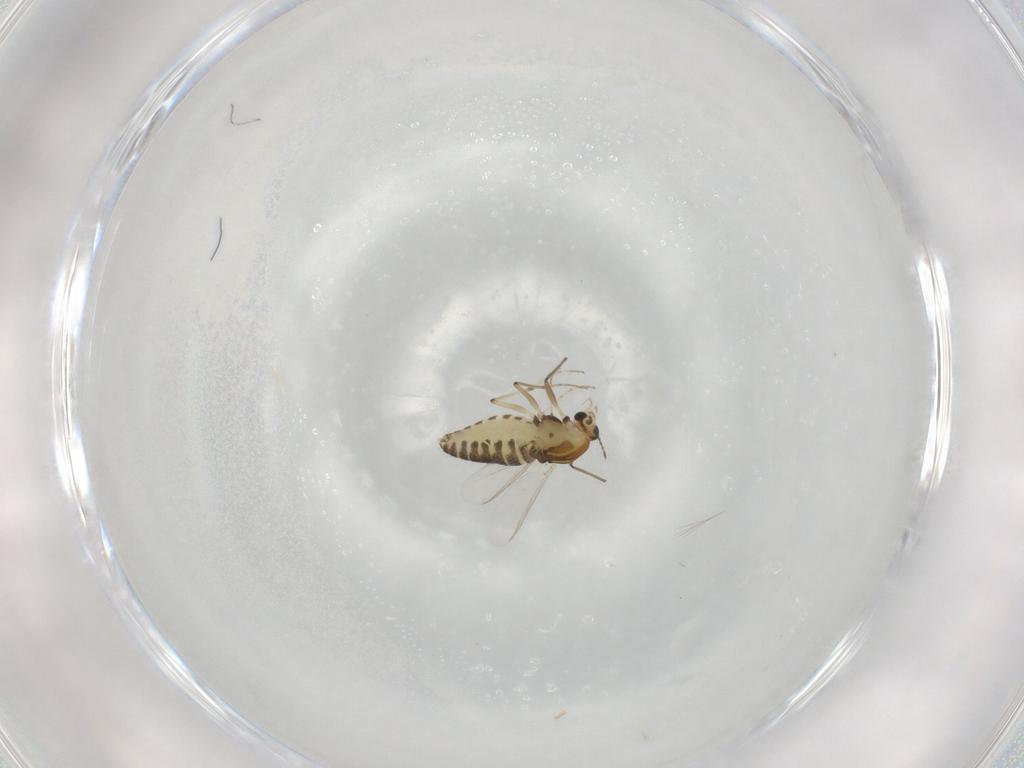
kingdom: Animalia
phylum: Arthropoda
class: Insecta
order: Diptera
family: Chironomidae
